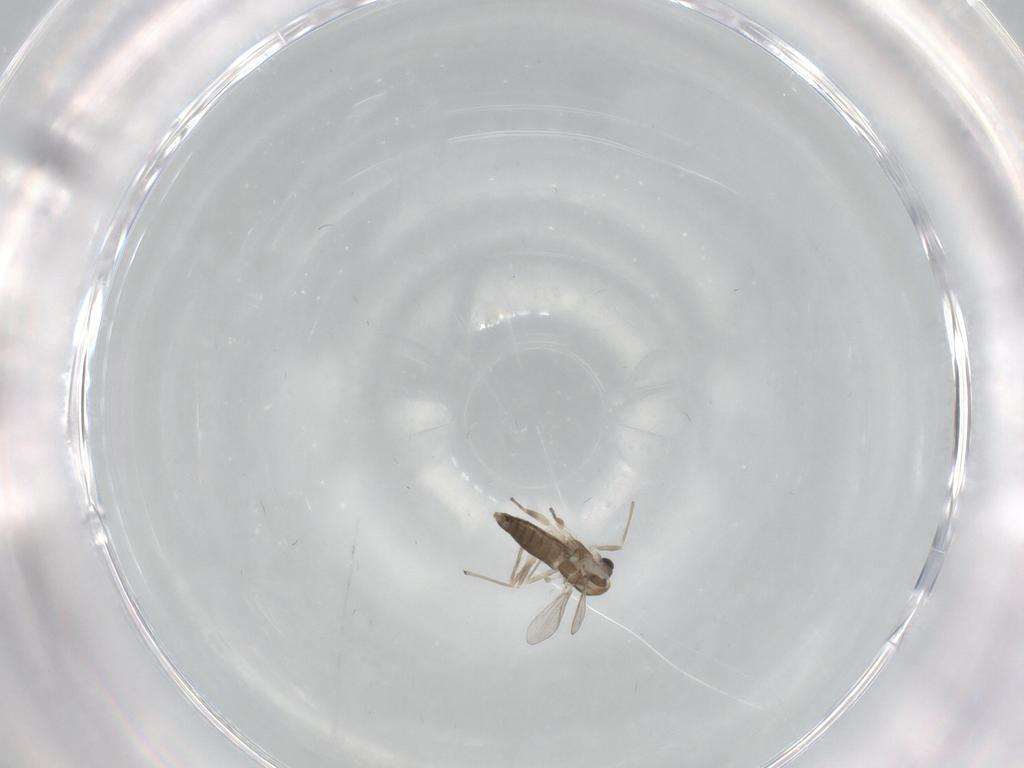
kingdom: Animalia
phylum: Arthropoda
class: Insecta
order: Diptera
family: Chironomidae
